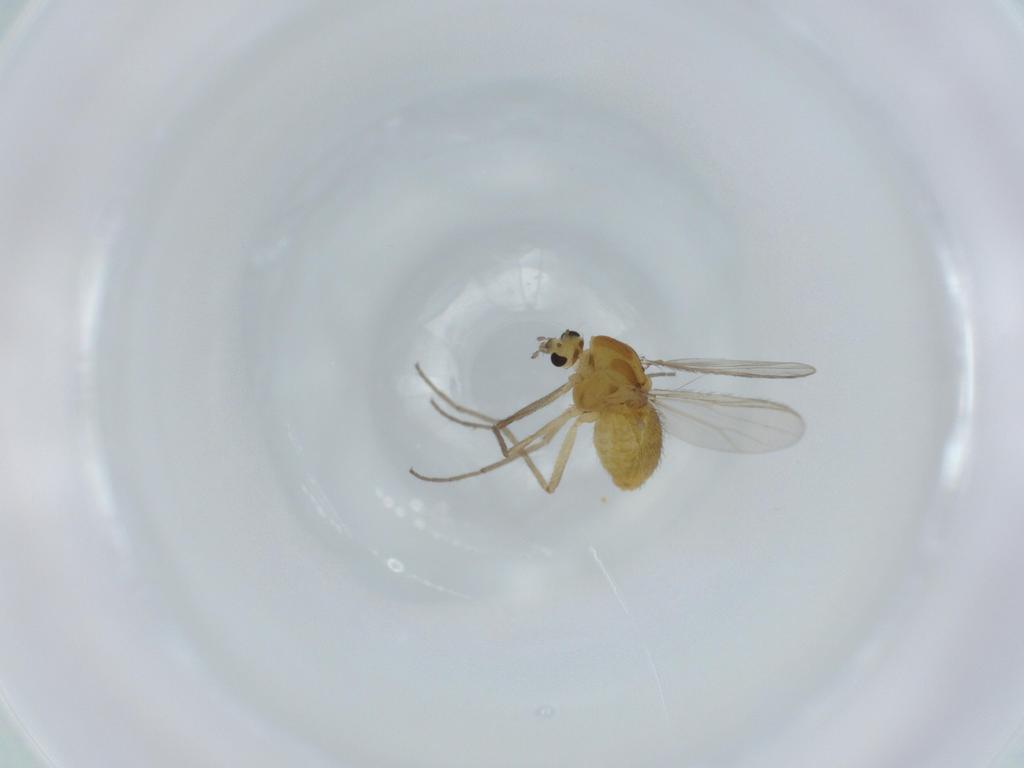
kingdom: Animalia
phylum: Arthropoda
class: Insecta
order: Diptera
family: Chironomidae
